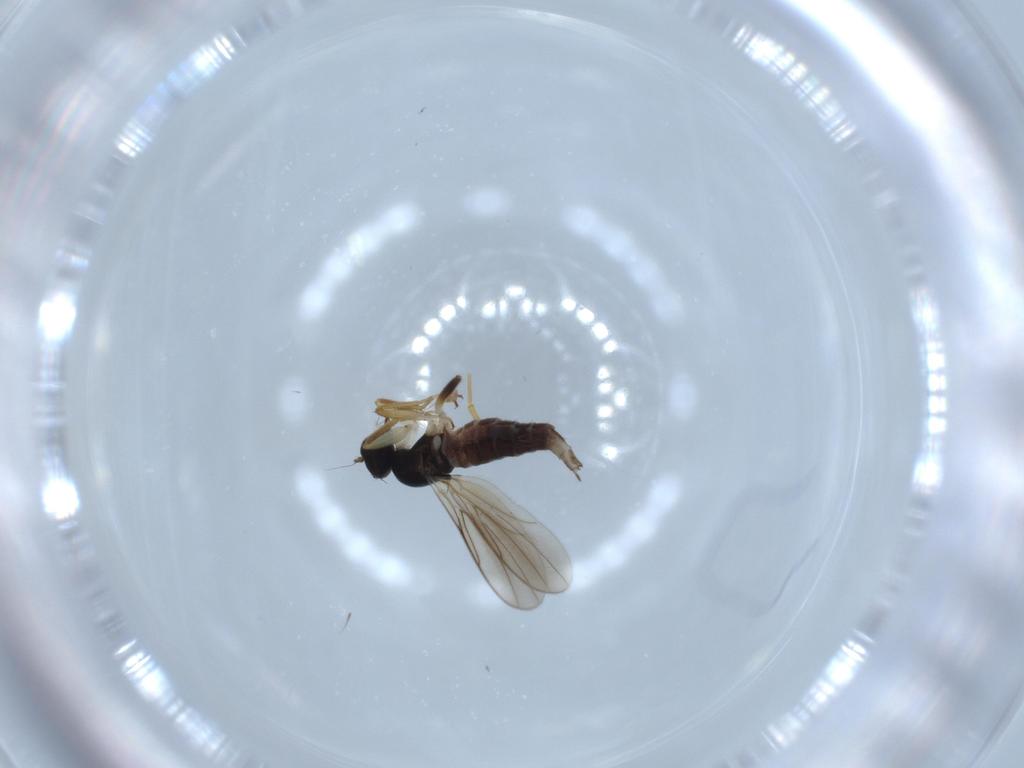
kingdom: Animalia
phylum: Arthropoda
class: Insecta
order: Diptera
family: Hybotidae
